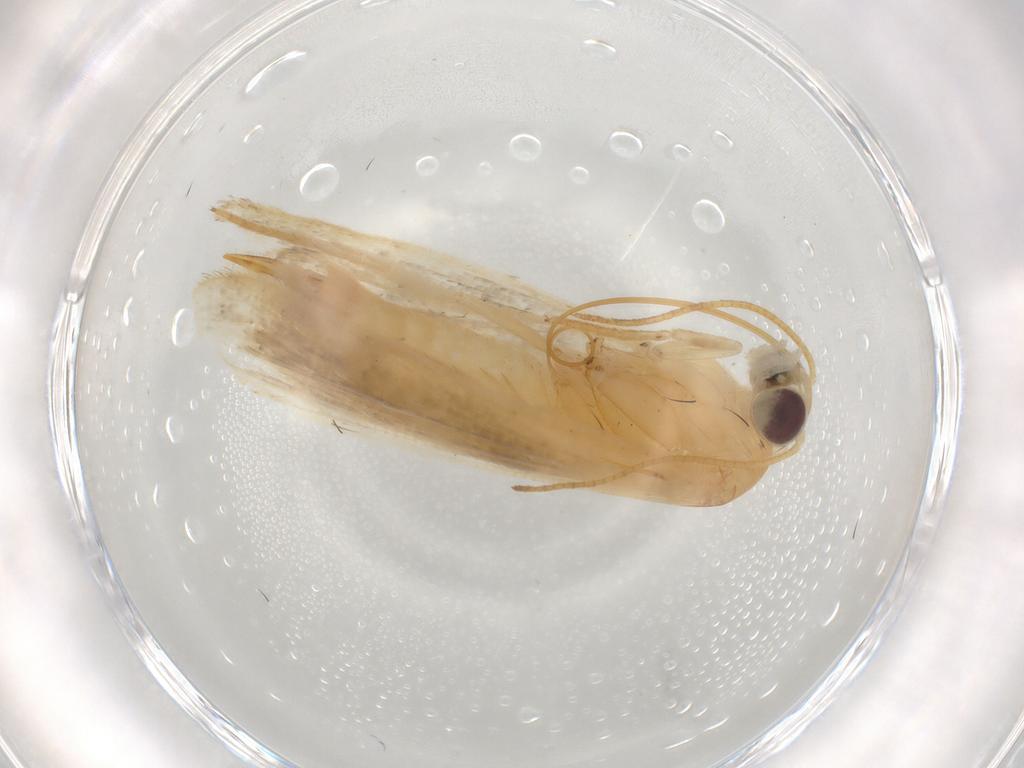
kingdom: Animalia
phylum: Arthropoda
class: Insecta
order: Lepidoptera
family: Noctuidae
